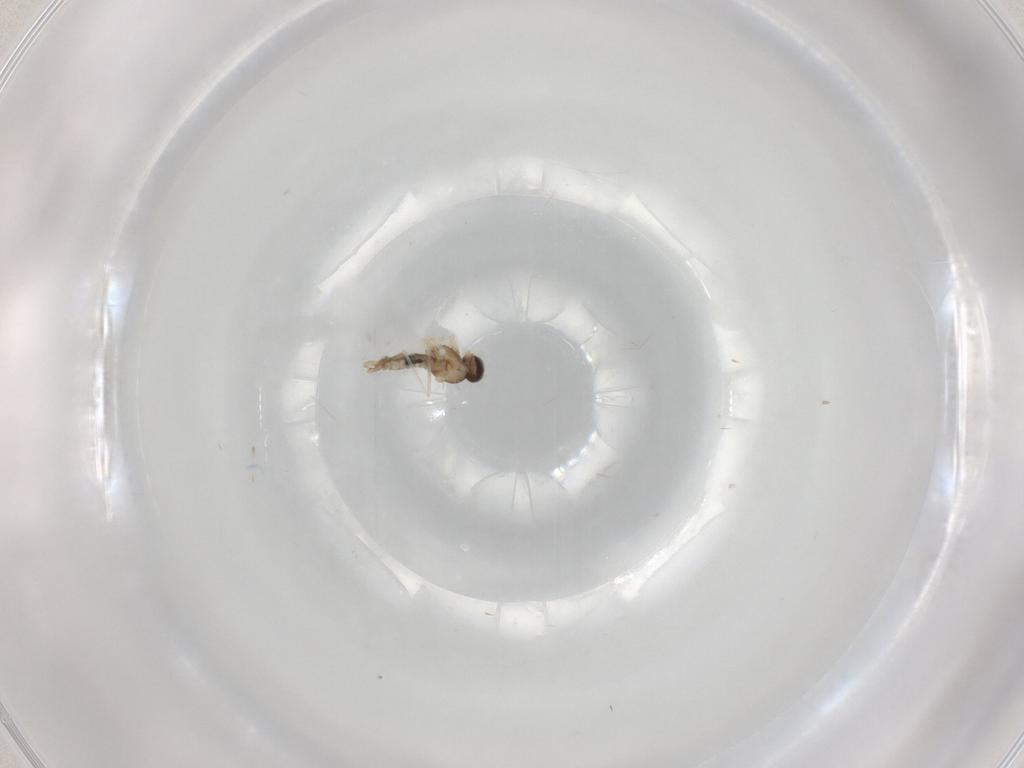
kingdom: Animalia
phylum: Arthropoda
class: Insecta
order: Diptera
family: Cecidomyiidae
